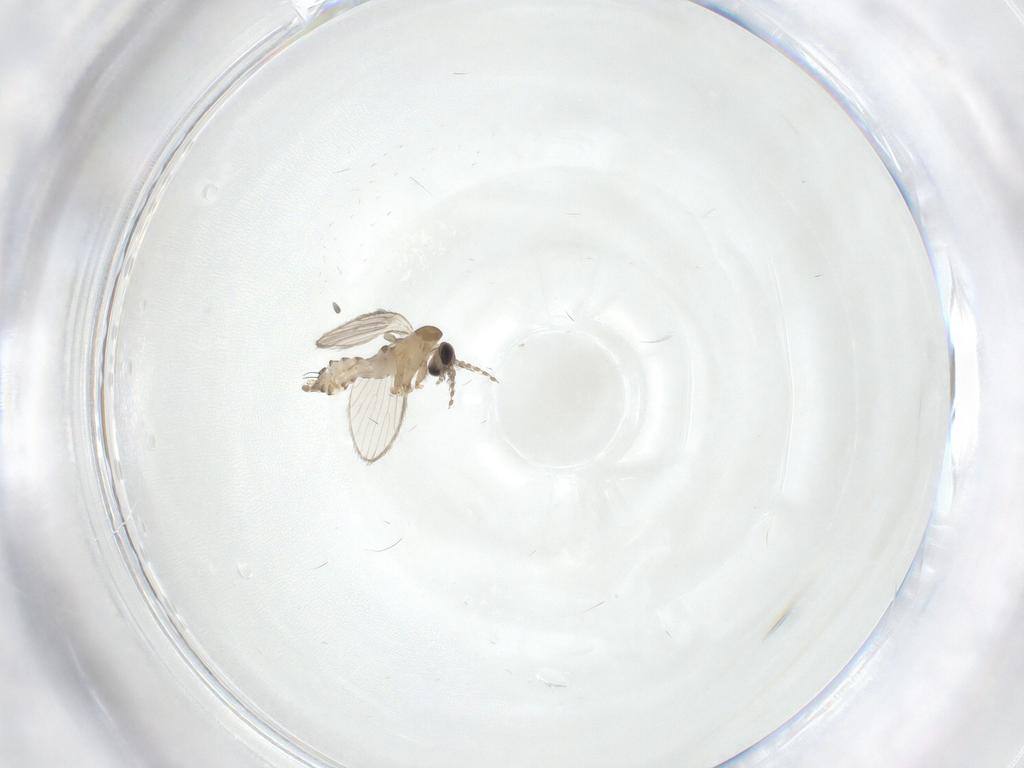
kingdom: Animalia
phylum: Arthropoda
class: Insecta
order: Diptera
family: Psychodidae
